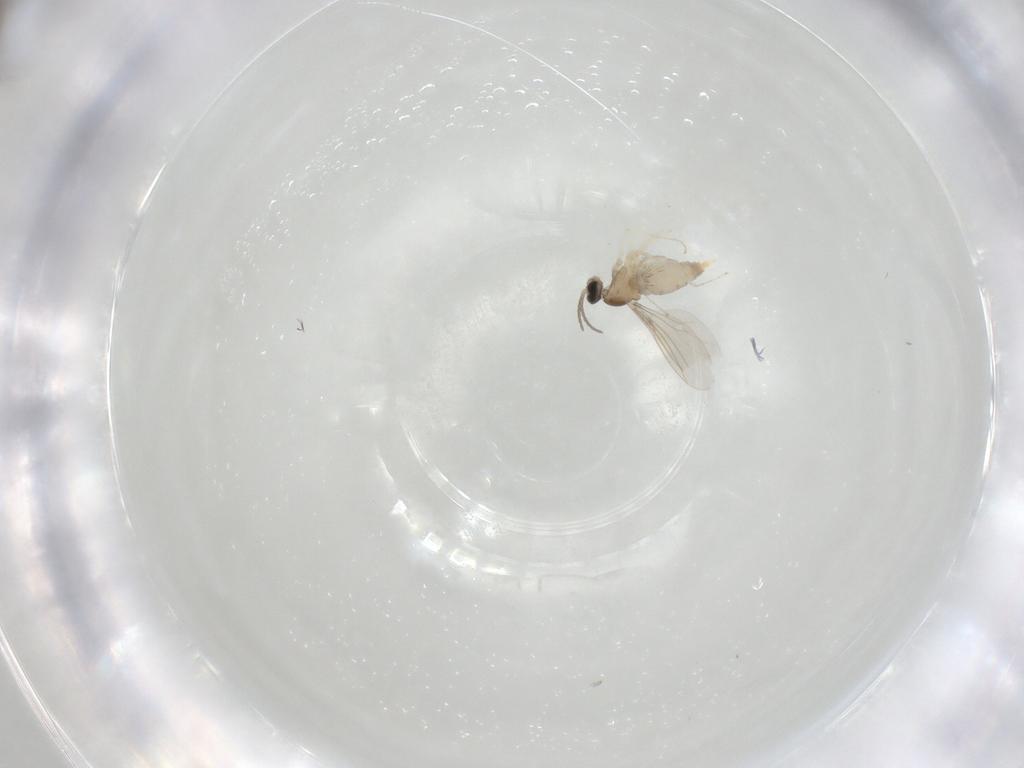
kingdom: Animalia
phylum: Arthropoda
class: Insecta
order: Diptera
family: Cecidomyiidae
